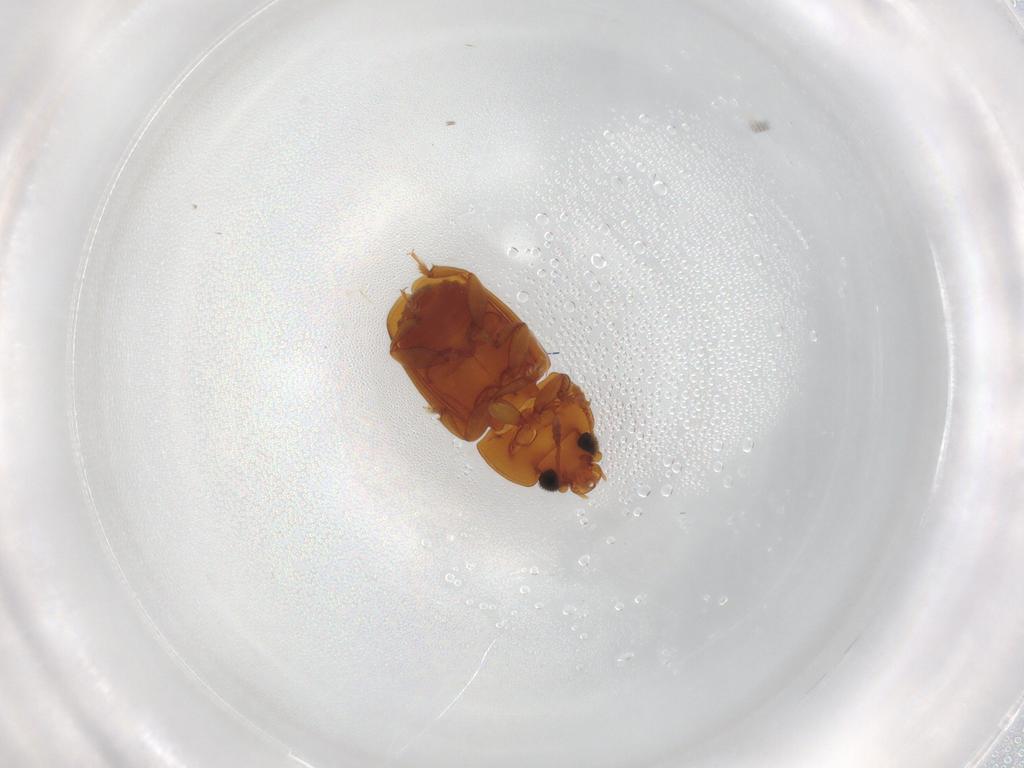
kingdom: Animalia
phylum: Arthropoda
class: Insecta
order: Coleoptera
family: Nitidulidae
